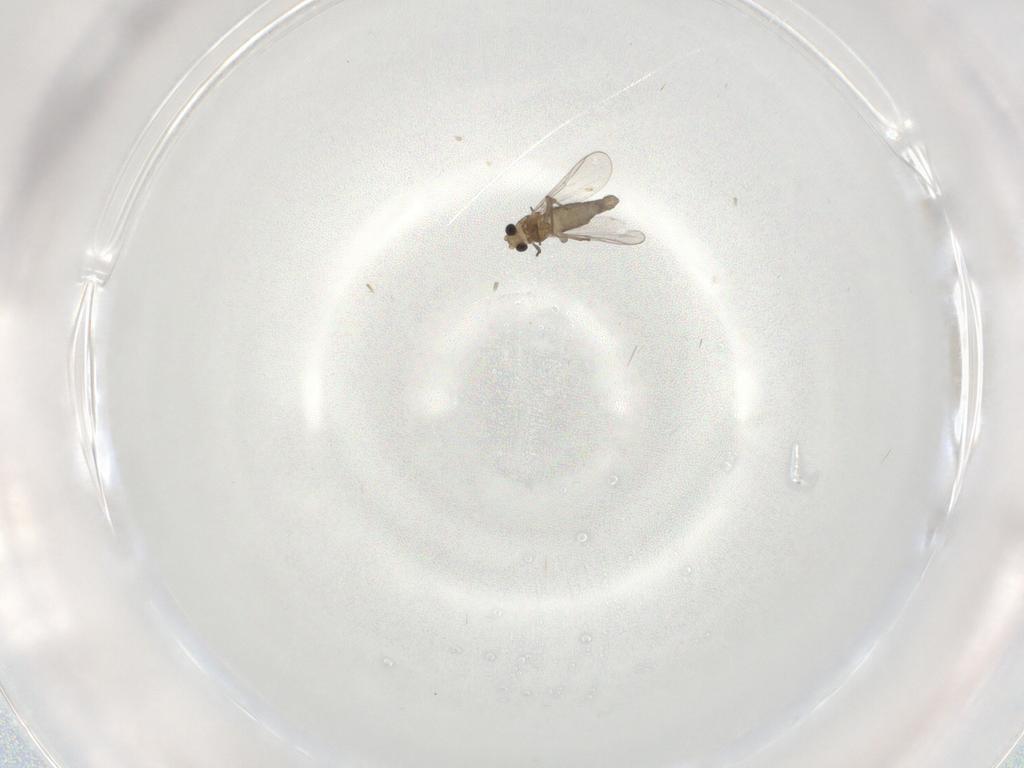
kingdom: Animalia
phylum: Arthropoda
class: Insecta
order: Diptera
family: Chironomidae
